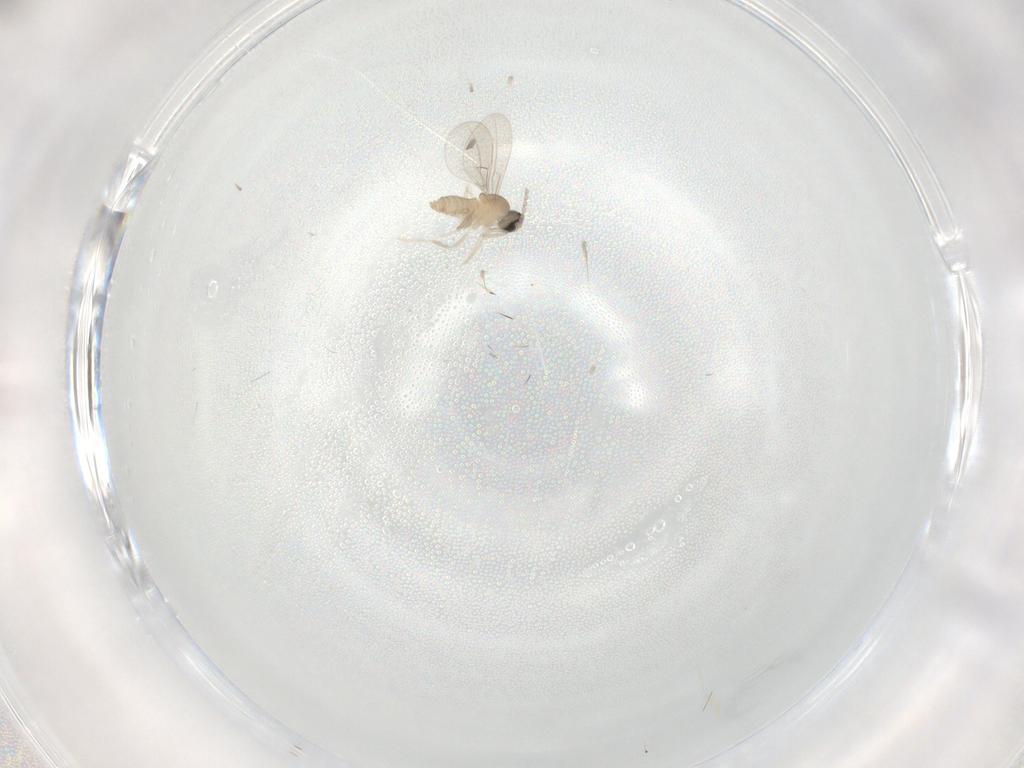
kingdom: Animalia
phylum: Arthropoda
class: Insecta
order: Diptera
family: Cecidomyiidae
